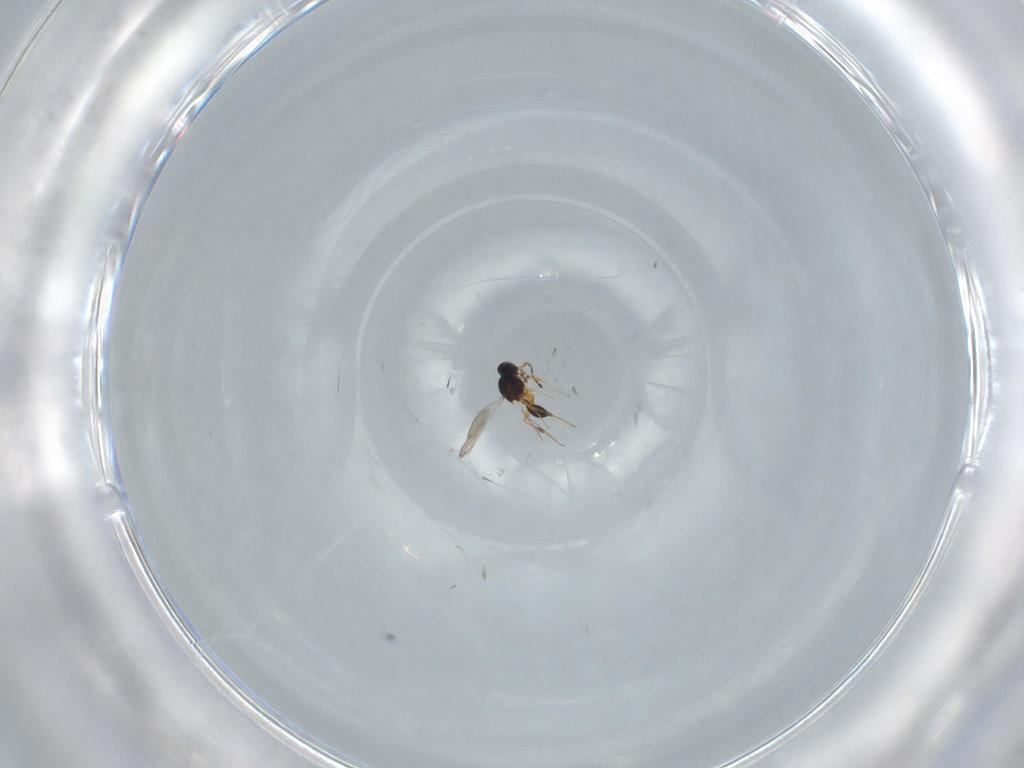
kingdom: Animalia
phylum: Arthropoda
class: Insecta
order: Hymenoptera
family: Platygastridae
